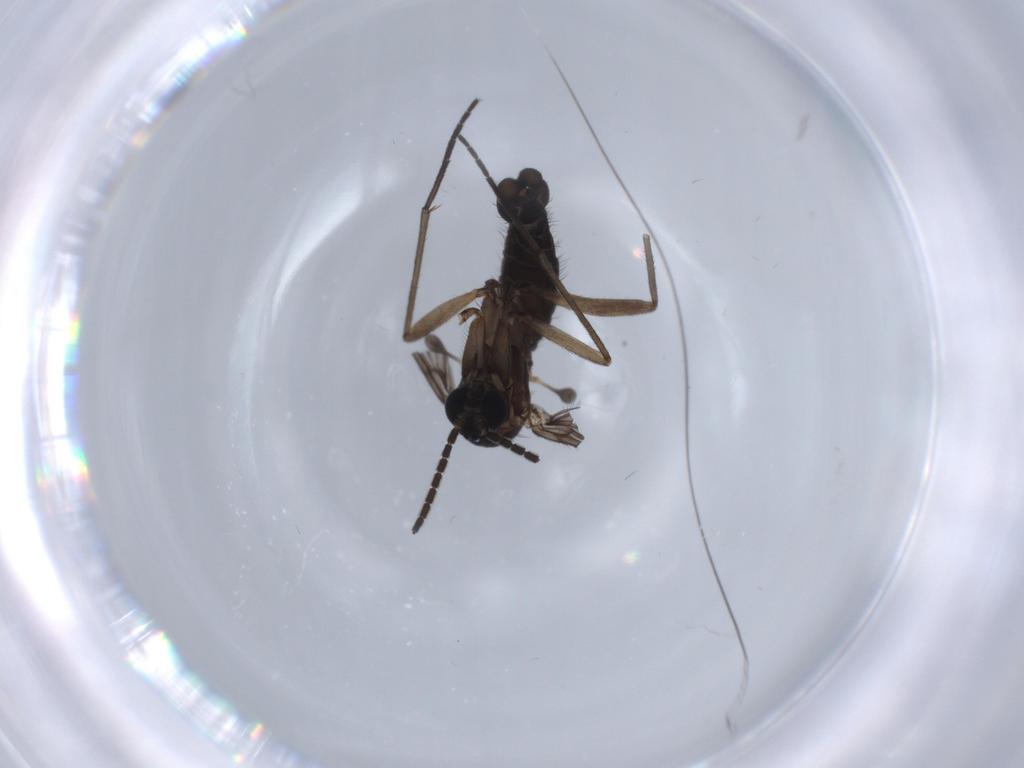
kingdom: Animalia
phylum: Arthropoda
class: Insecta
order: Diptera
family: Sciaridae
